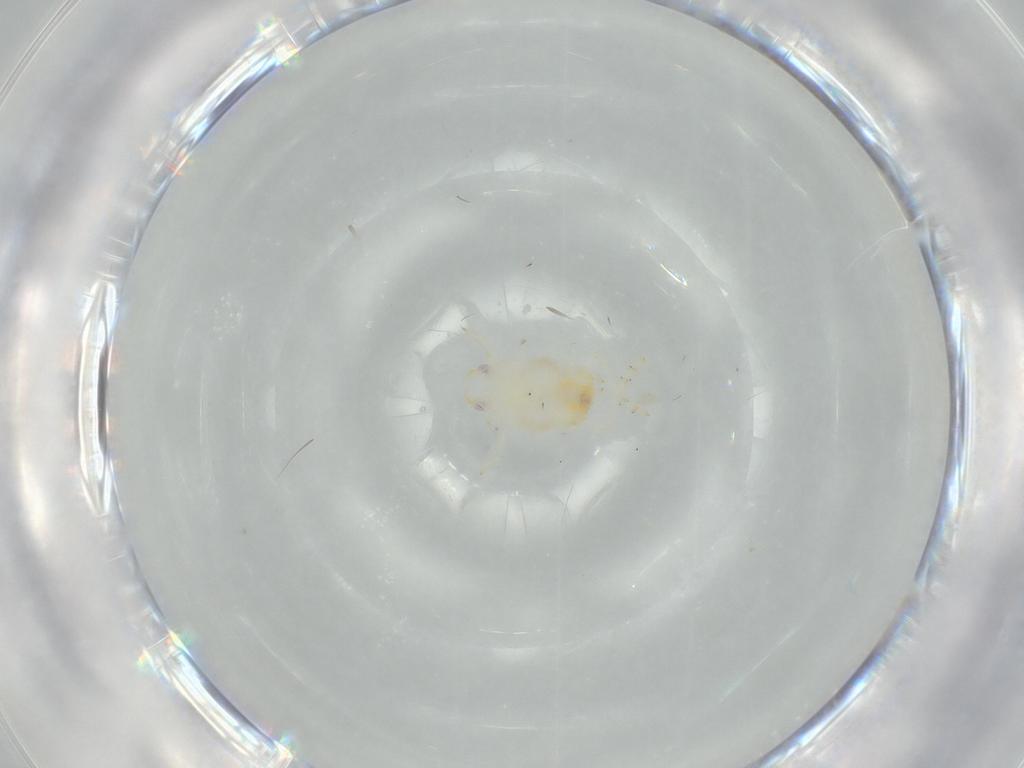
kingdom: Animalia
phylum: Arthropoda
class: Insecta
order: Hemiptera
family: Flatidae
